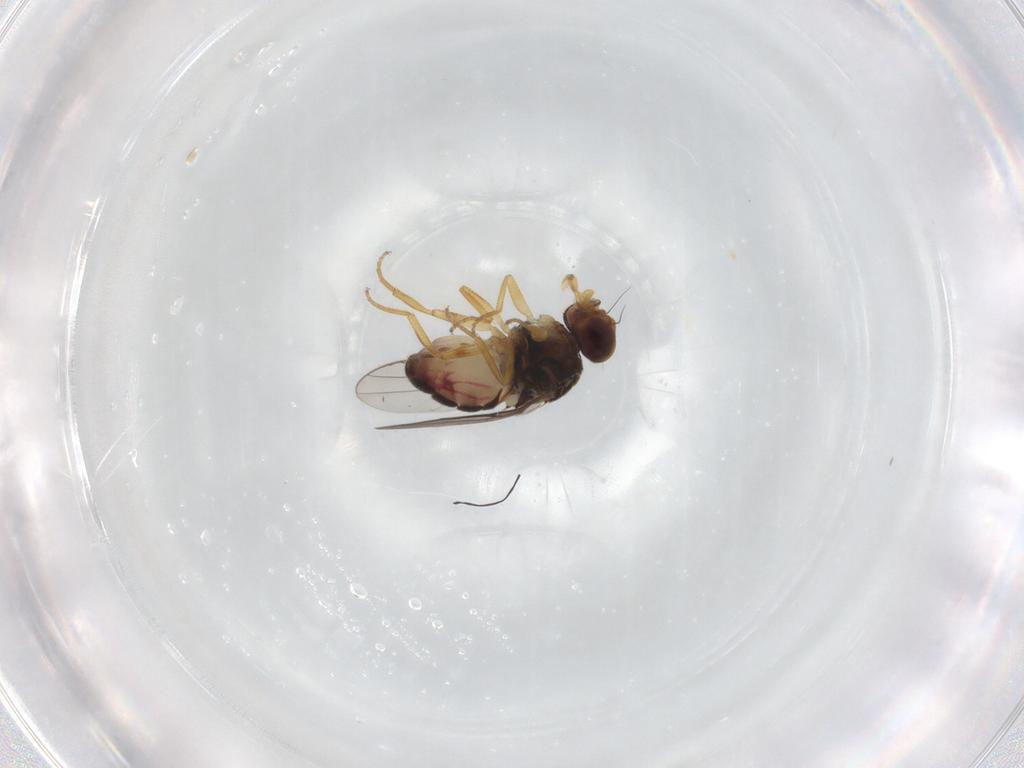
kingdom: Animalia
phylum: Arthropoda
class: Insecta
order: Diptera
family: Chloropidae
